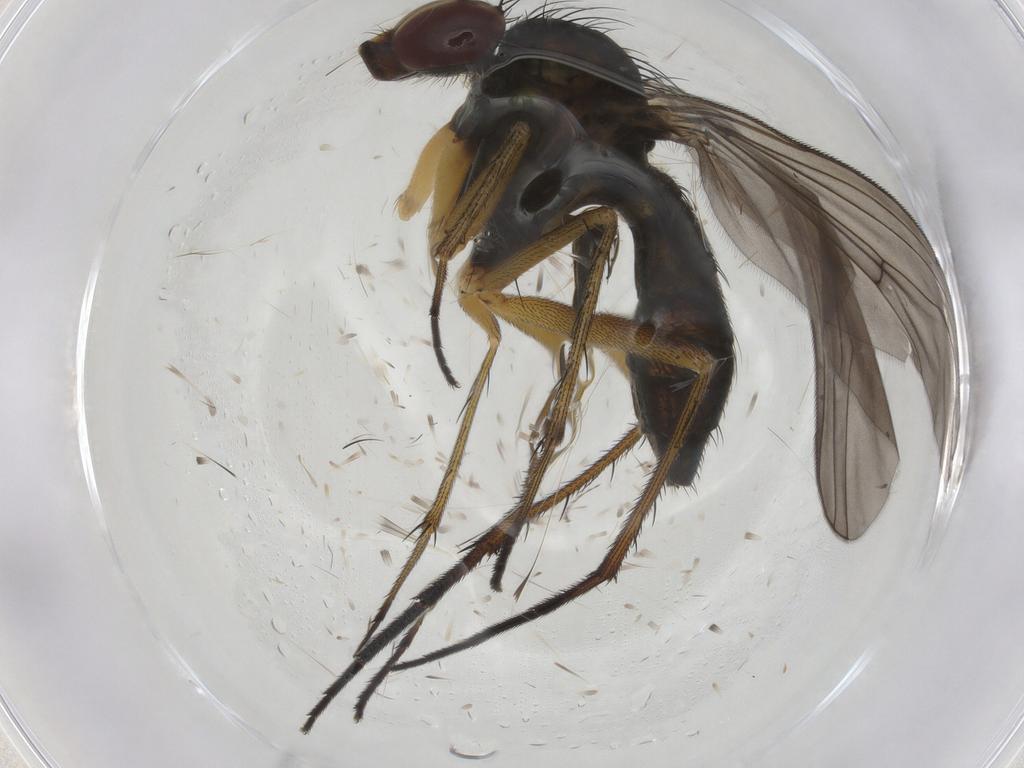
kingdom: Animalia
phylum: Arthropoda
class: Insecta
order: Diptera
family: Dolichopodidae
